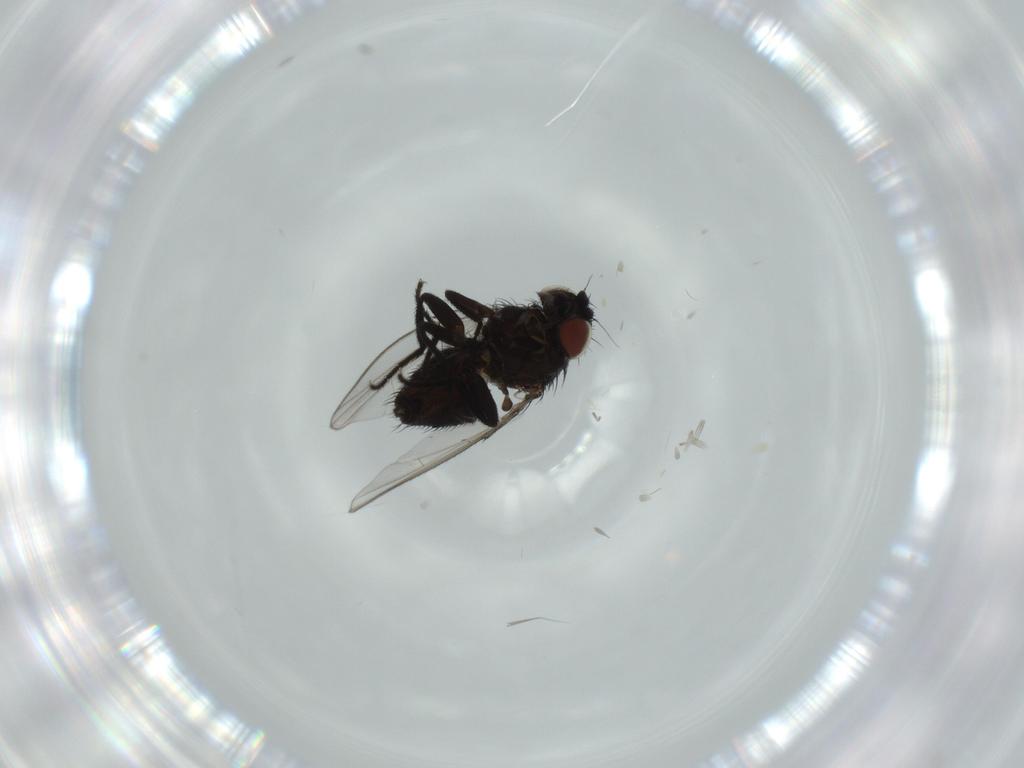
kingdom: Animalia
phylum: Arthropoda
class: Insecta
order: Diptera
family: Milichiidae
